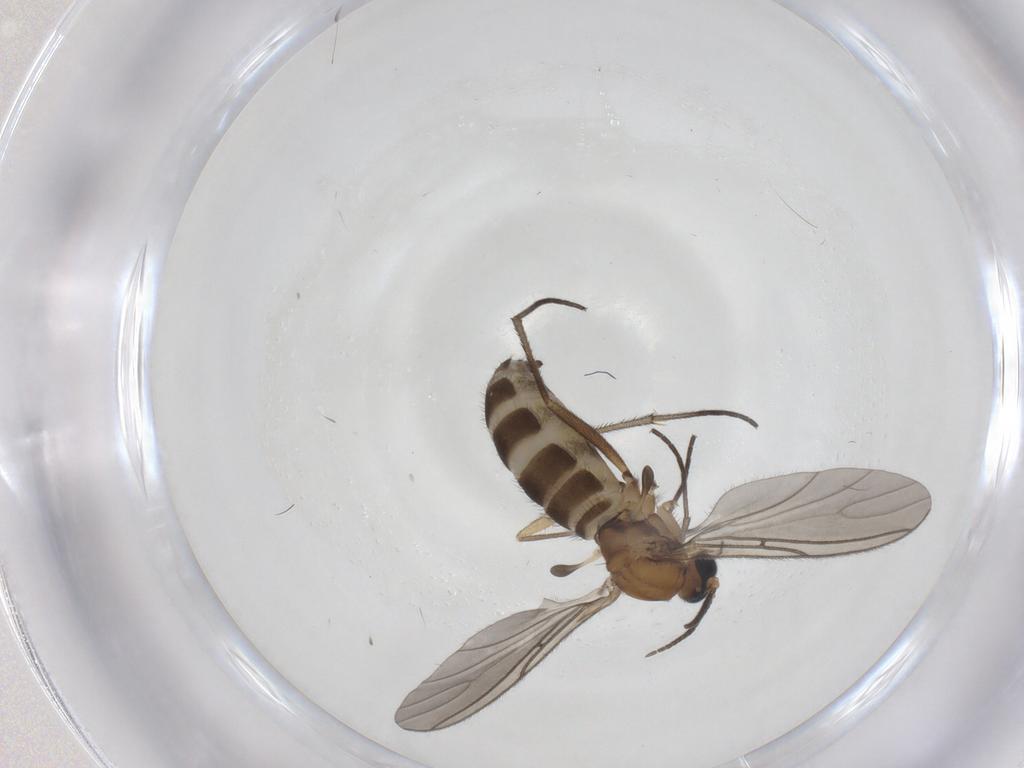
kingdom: Animalia
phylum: Arthropoda
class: Insecta
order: Diptera
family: Sciaridae
